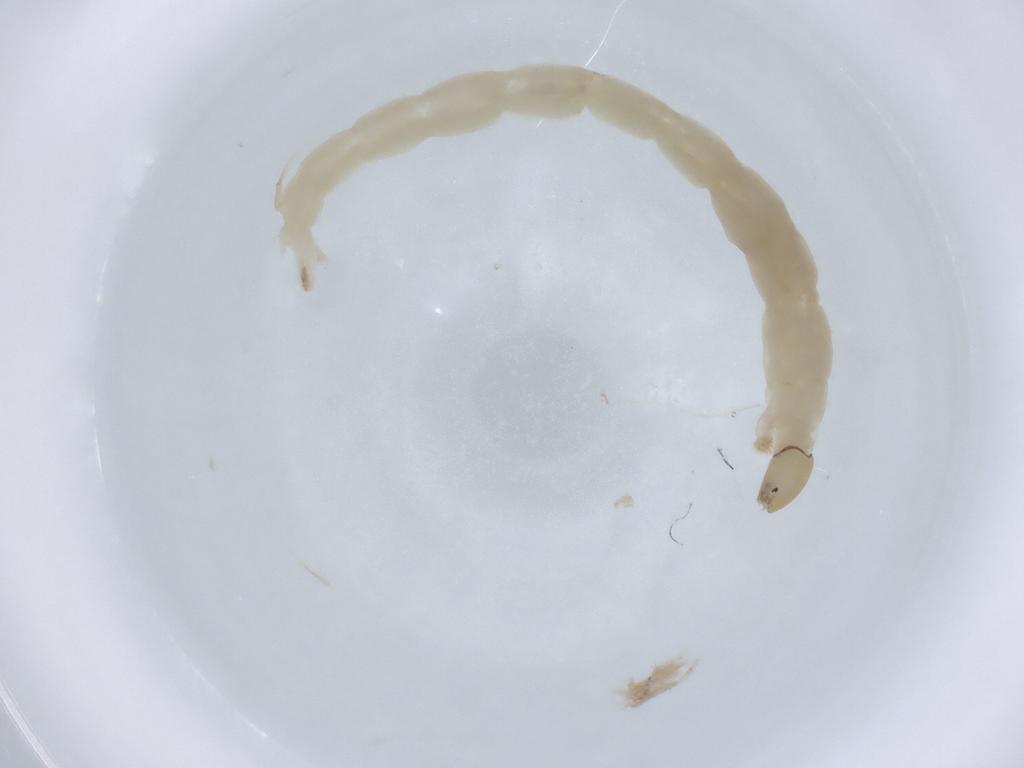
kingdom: Animalia
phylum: Arthropoda
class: Insecta
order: Diptera
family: Chironomidae
